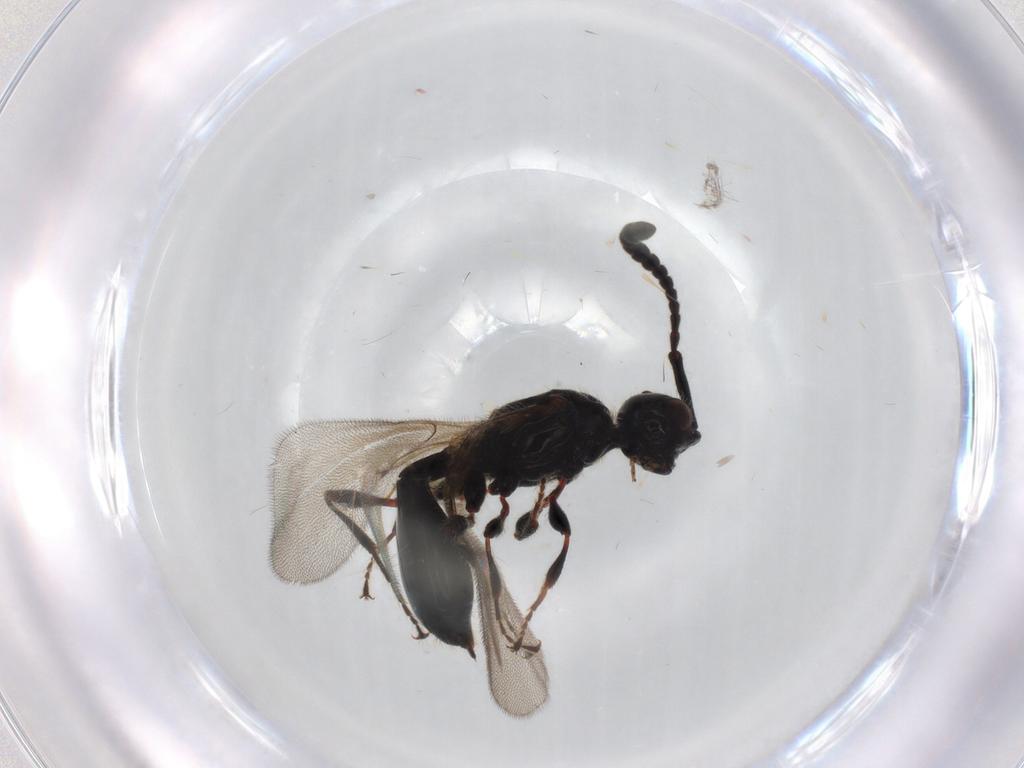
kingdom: Animalia
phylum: Arthropoda
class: Insecta
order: Hymenoptera
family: Diapriidae
